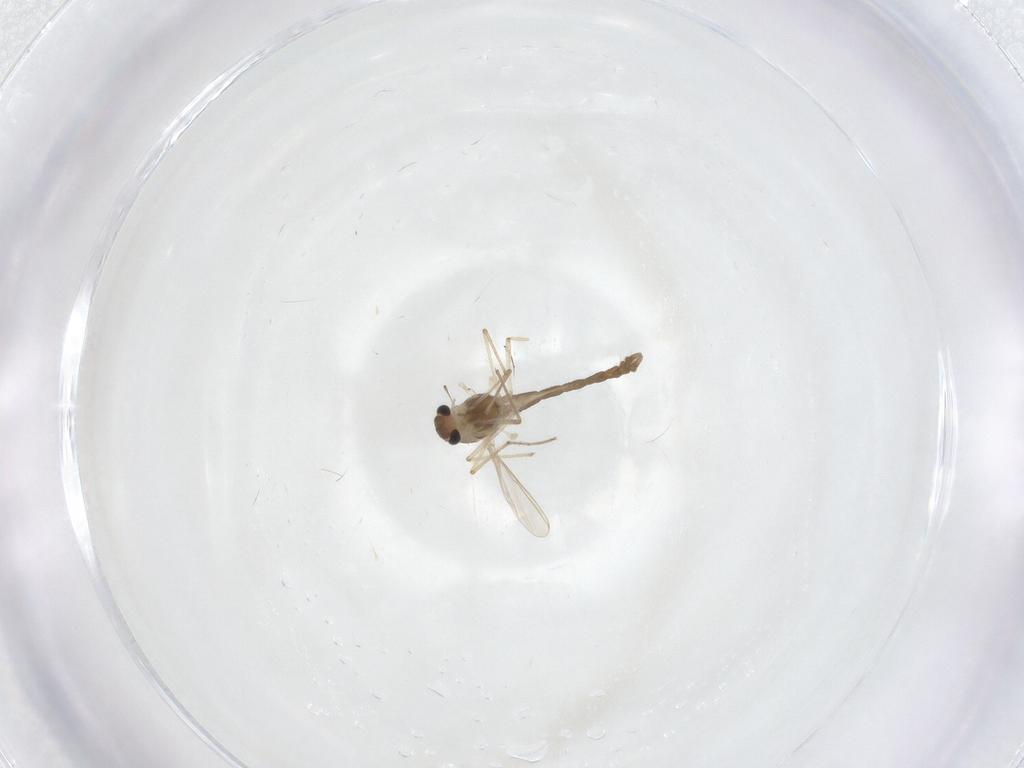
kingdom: Animalia
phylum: Arthropoda
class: Insecta
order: Diptera
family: Chironomidae
